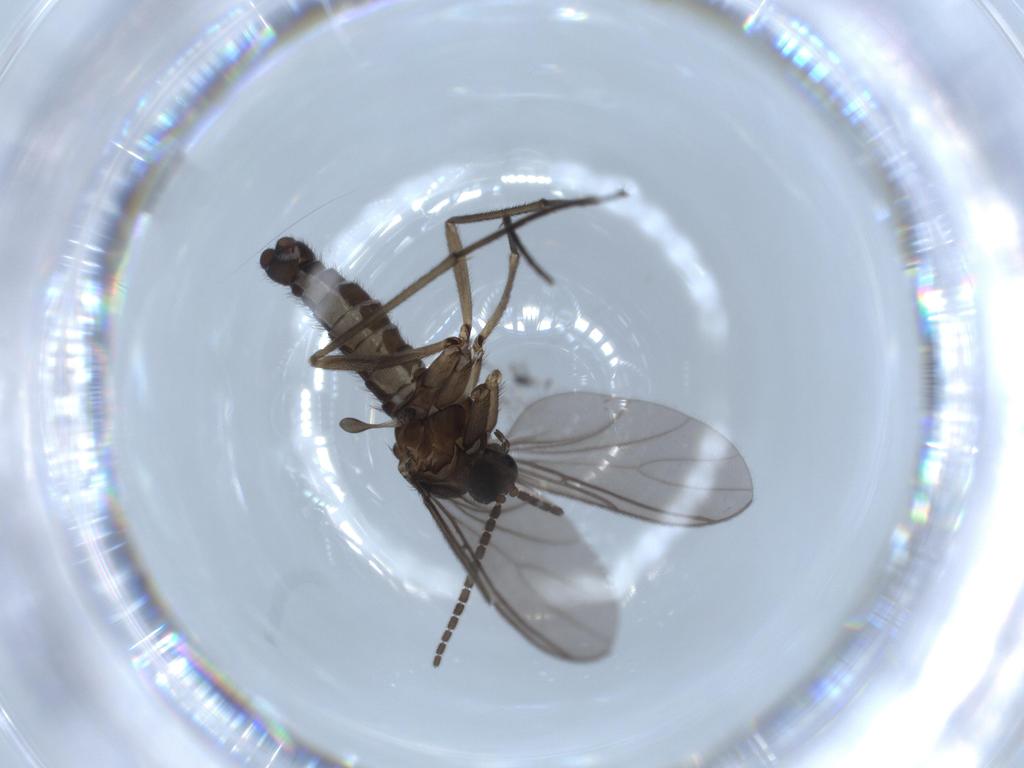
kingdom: Animalia
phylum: Arthropoda
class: Insecta
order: Diptera
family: Sciaridae
